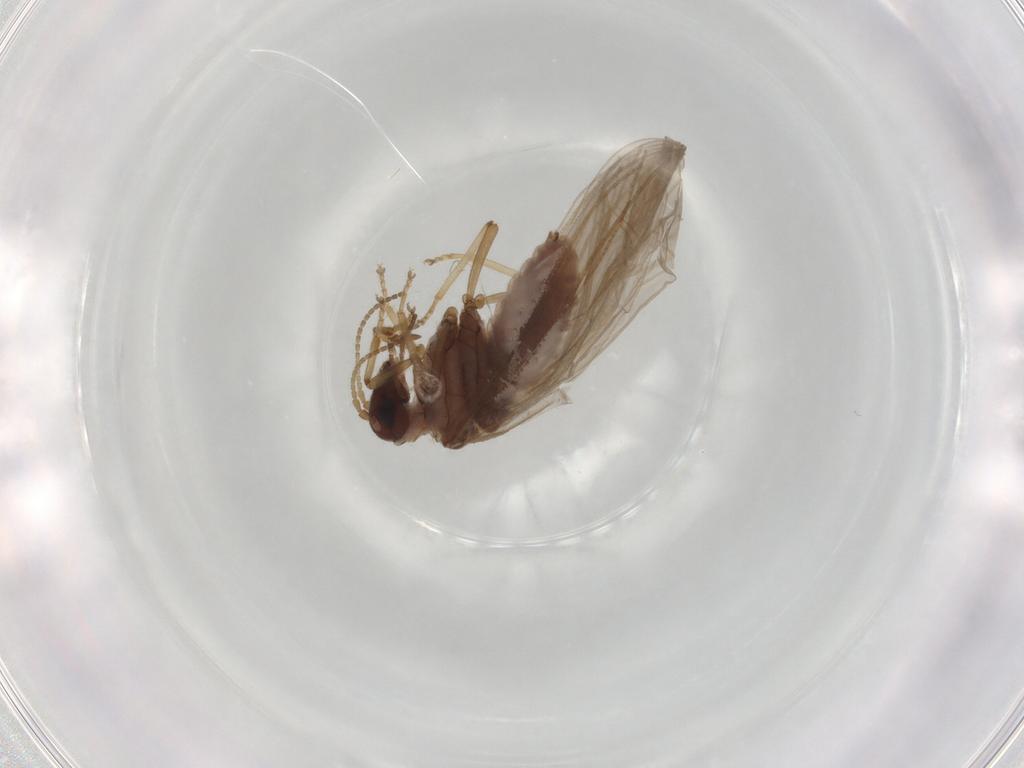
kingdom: Animalia
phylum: Arthropoda
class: Insecta
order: Neuroptera
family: Coniopterygidae
